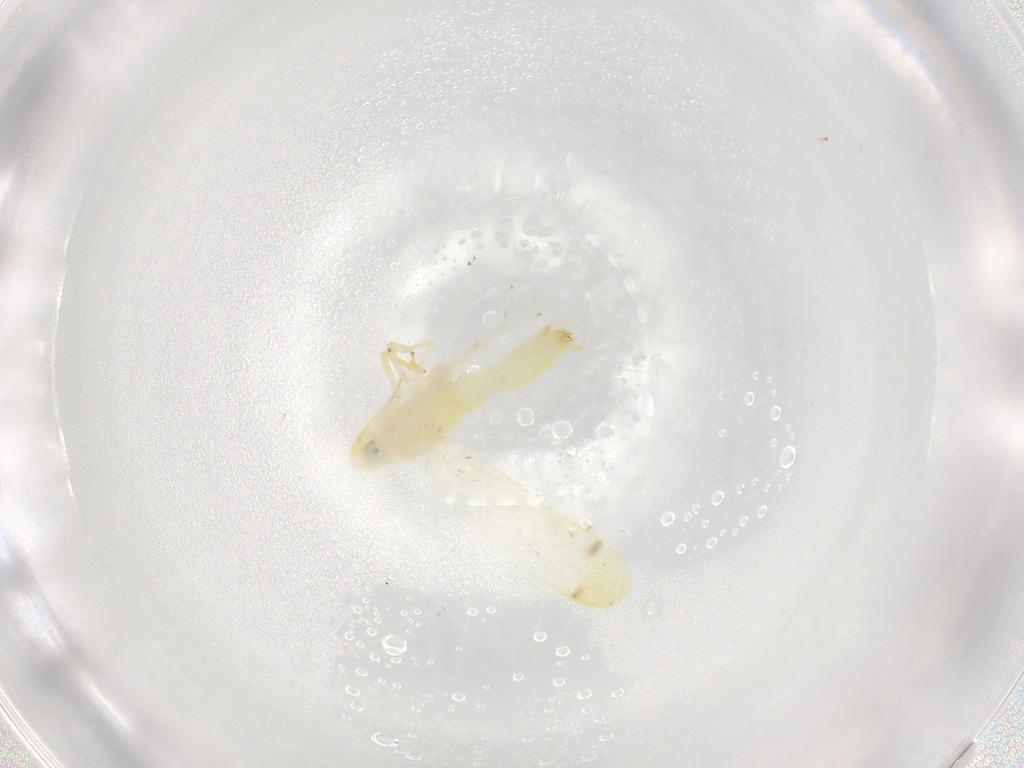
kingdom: Animalia
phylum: Arthropoda
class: Insecta
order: Hemiptera
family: Cicadellidae
